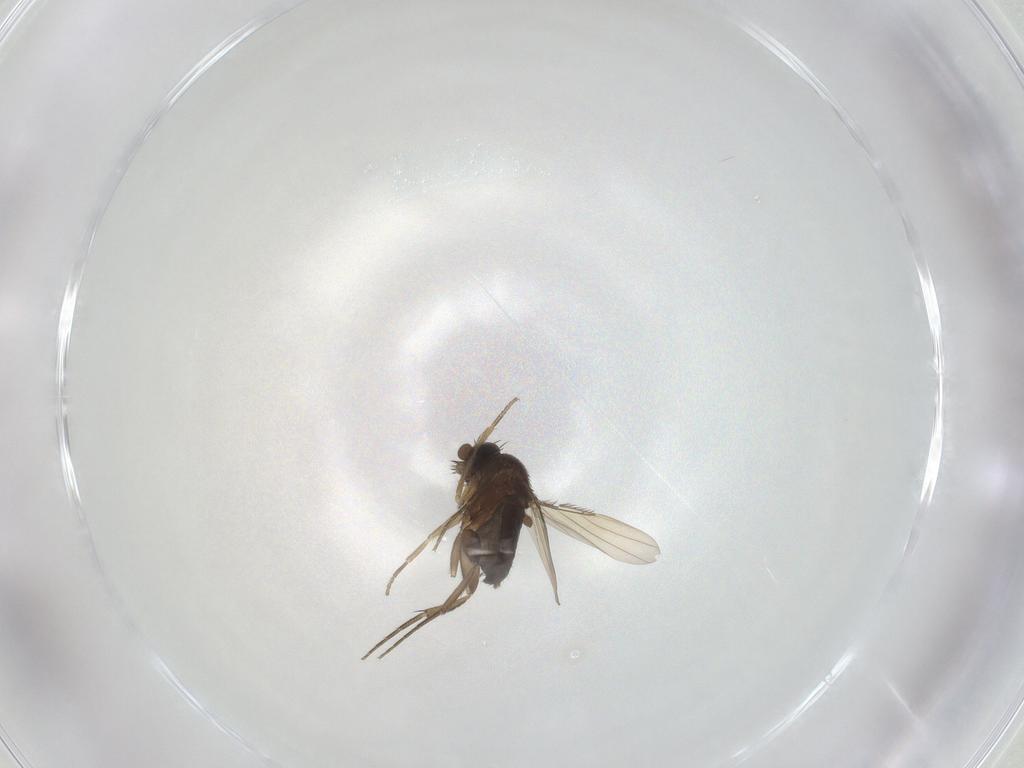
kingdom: Animalia
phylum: Arthropoda
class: Insecta
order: Diptera
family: Phoridae
